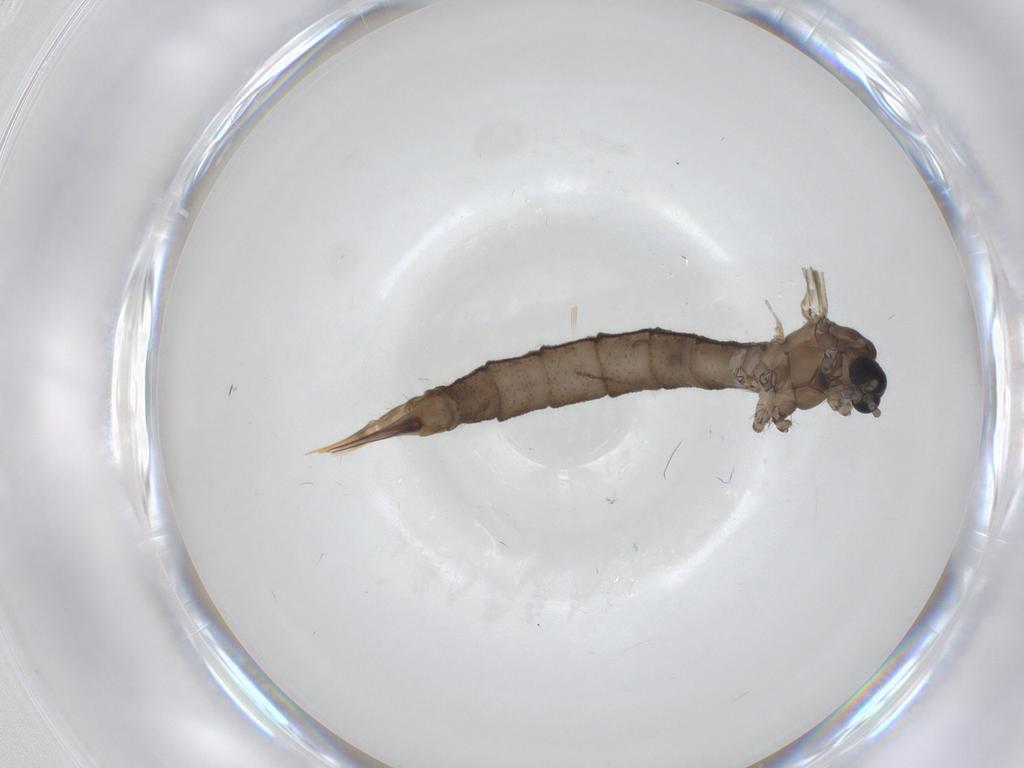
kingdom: Animalia
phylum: Arthropoda
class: Insecta
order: Diptera
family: Limoniidae
